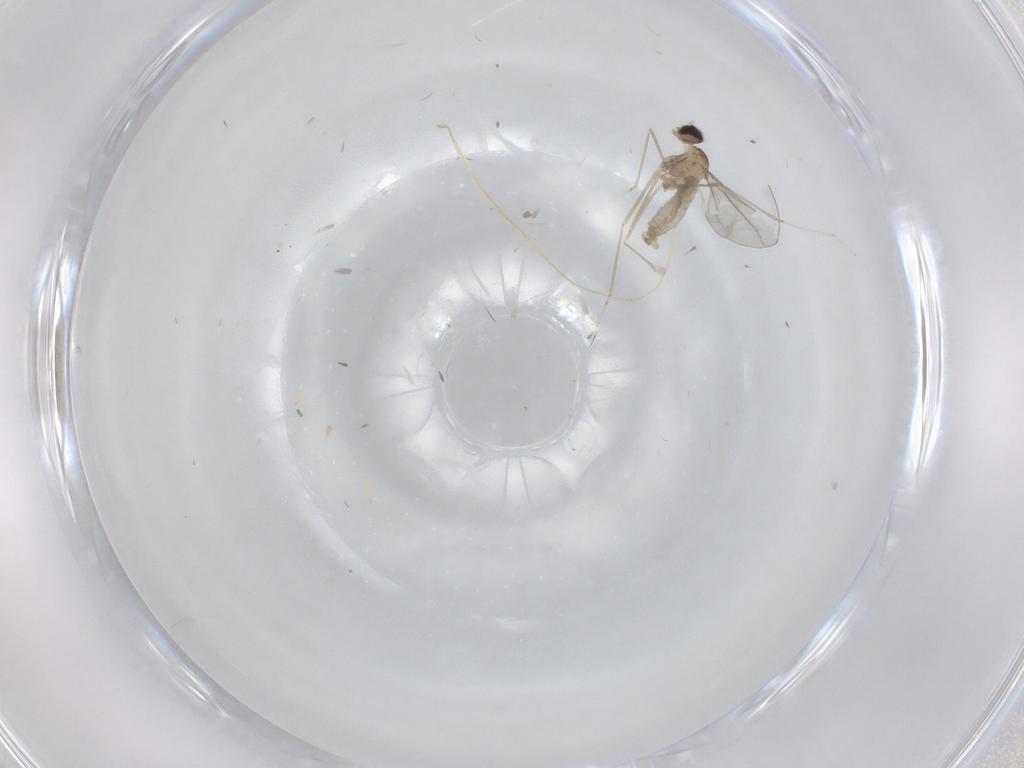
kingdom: Animalia
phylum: Arthropoda
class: Insecta
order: Diptera
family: Cecidomyiidae
